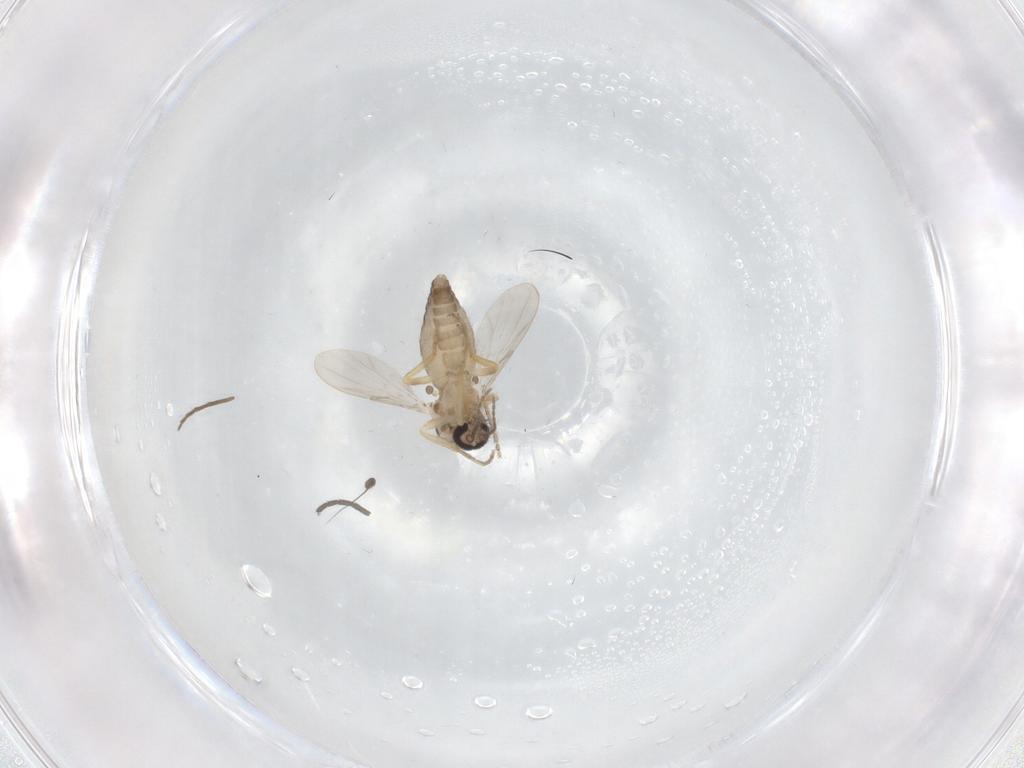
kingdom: Animalia
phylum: Arthropoda
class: Insecta
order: Diptera
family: Ceratopogonidae
